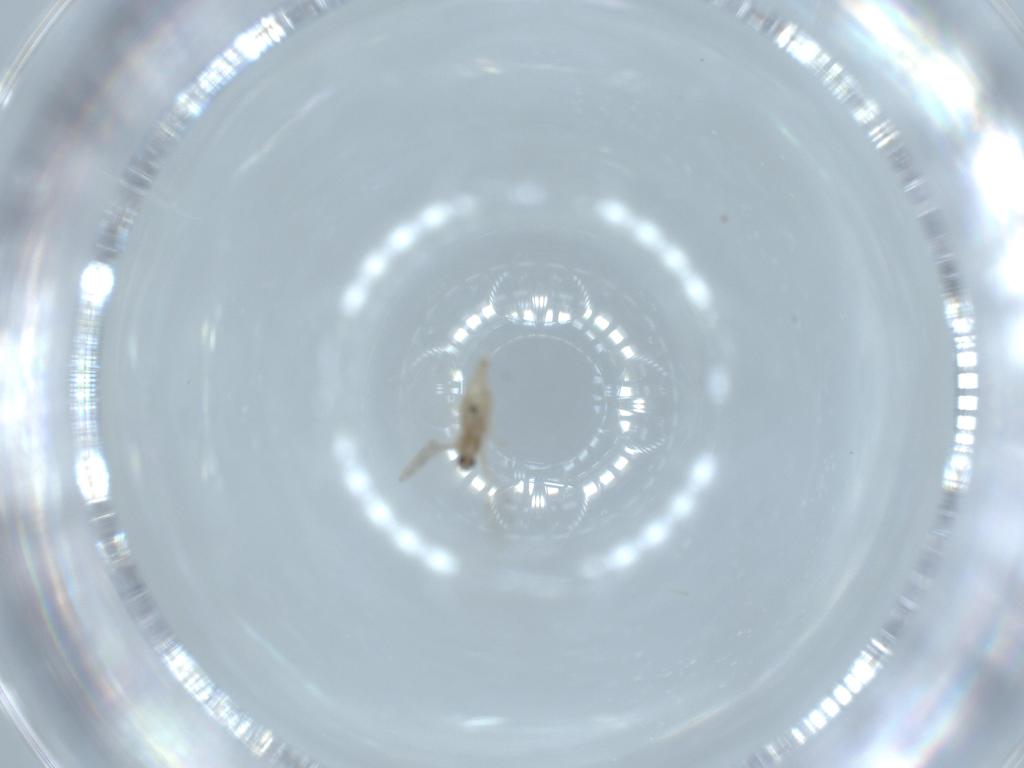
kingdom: Animalia
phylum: Arthropoda
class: Insecta
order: Diptera
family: Cecidomyiidae
